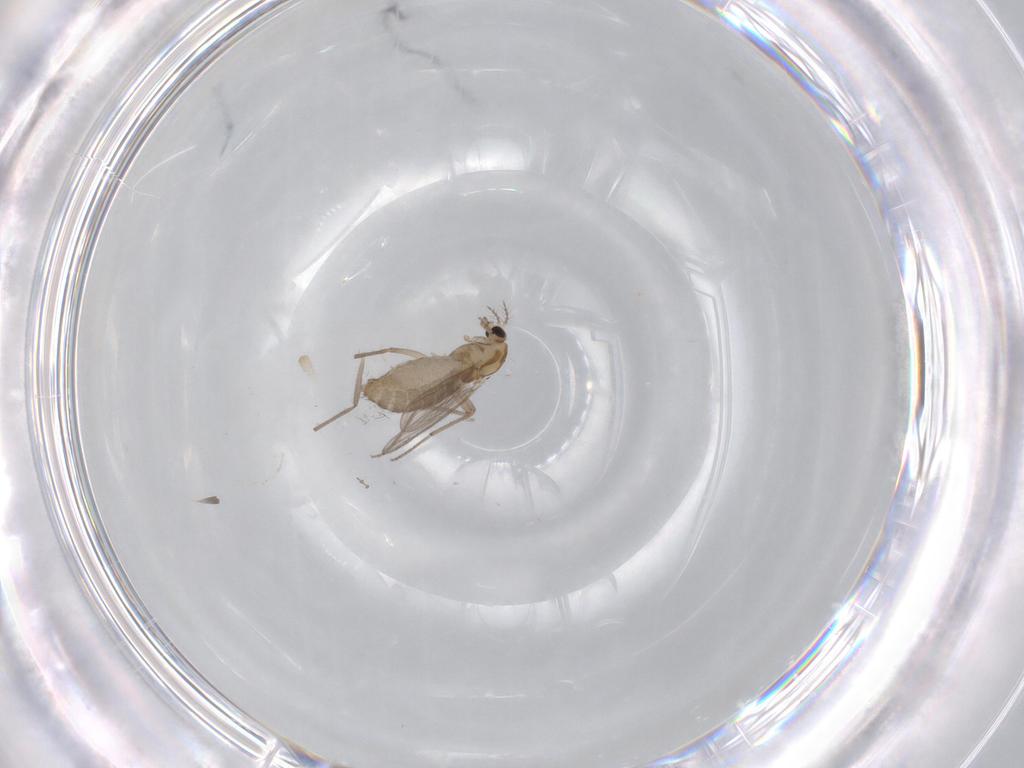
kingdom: Animalia
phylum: Arthropoda
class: Insecta
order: Diptera
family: Chironomidae
